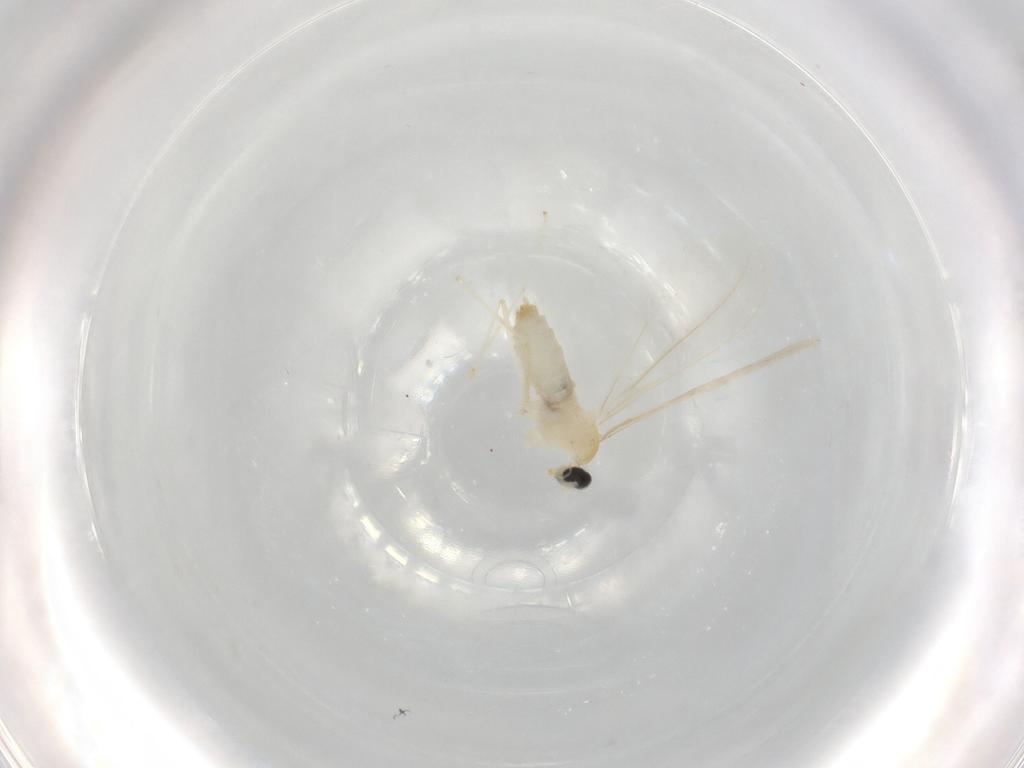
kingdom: Animalia
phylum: Arthropoda
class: Insecta
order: Diptera
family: Cecidomyiidae
